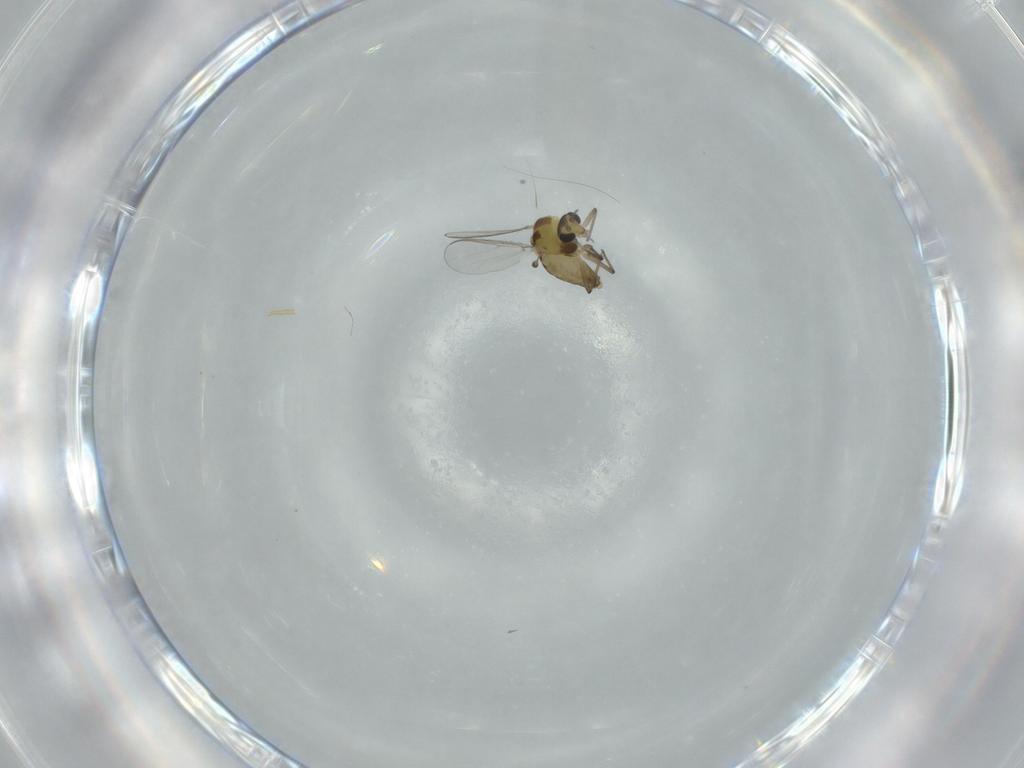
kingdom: Animalia
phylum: Arthropoda
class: Insecta
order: Diptera
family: Chironomidae
